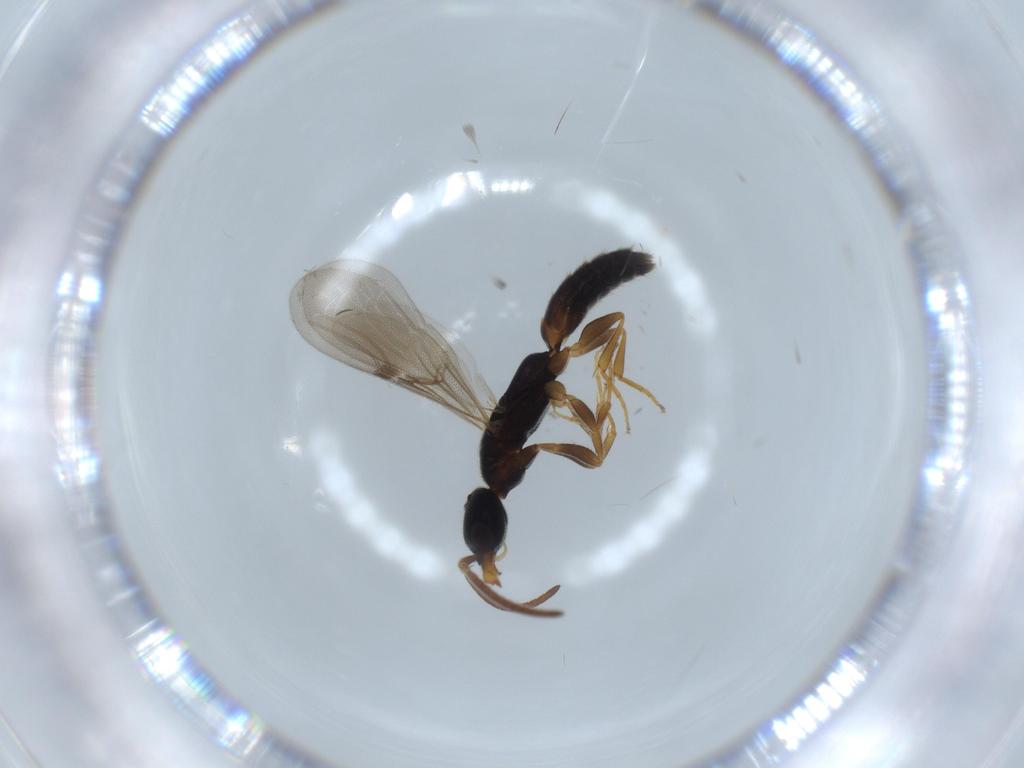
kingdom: Animalia
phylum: Arthropoda
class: Insecta
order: Hymenoptera
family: Bethylidae
